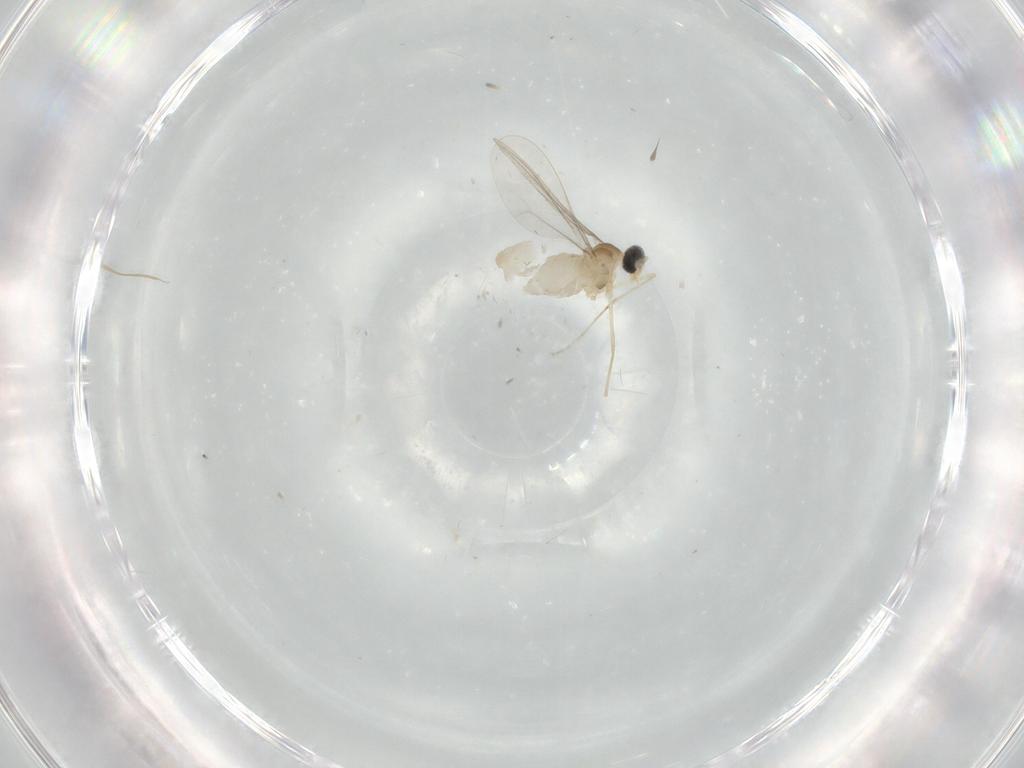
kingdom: Animalia
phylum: Arthropoda
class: Insecta
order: Diptera
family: Cecidomyiidae
